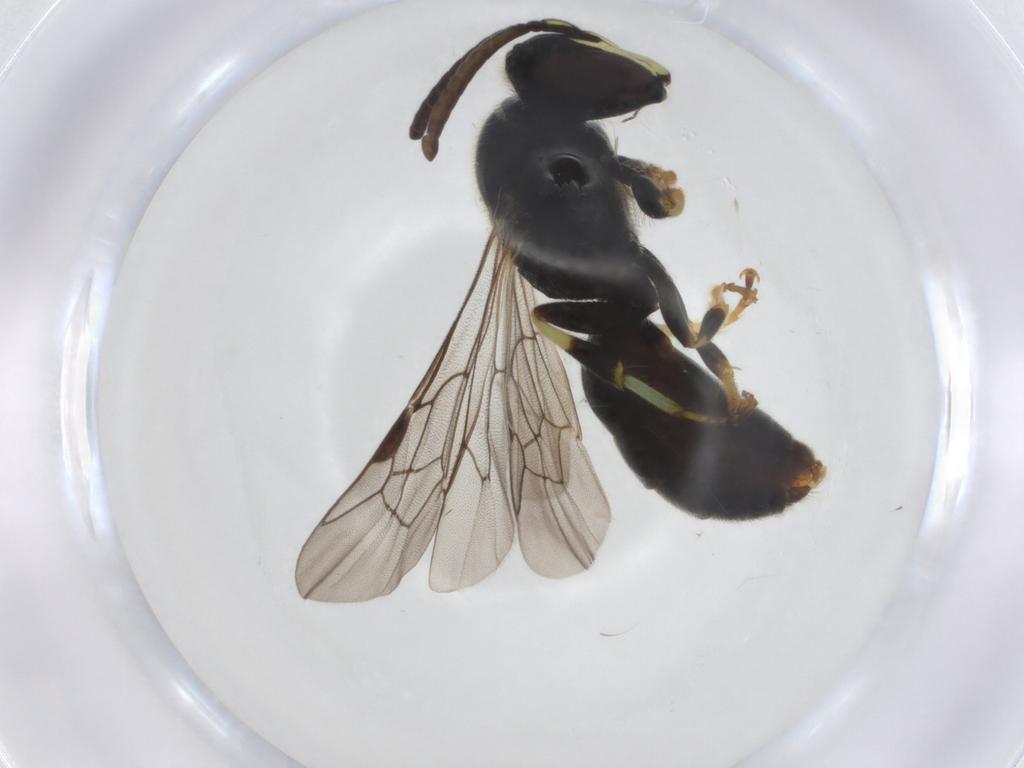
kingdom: Animalia
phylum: Arthropoda
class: Insecta
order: Hymenoptera
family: Colletidae
